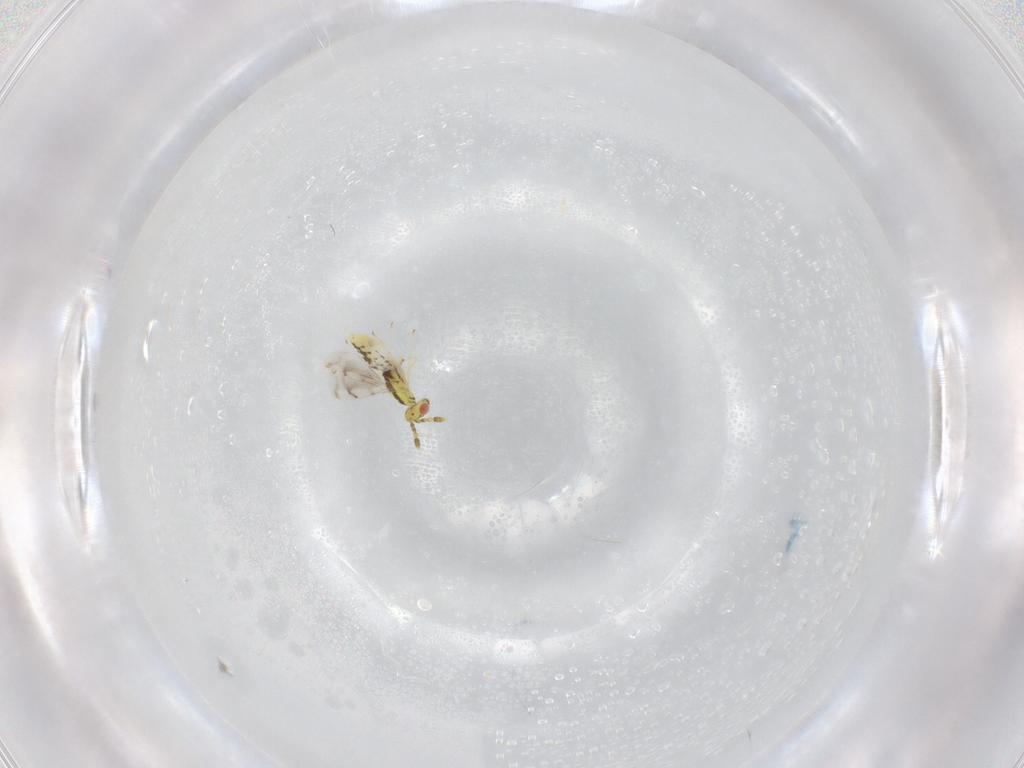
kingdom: Animalia
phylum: Arthropoda
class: Insecta
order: Hymenoptera
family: Eulophidae
